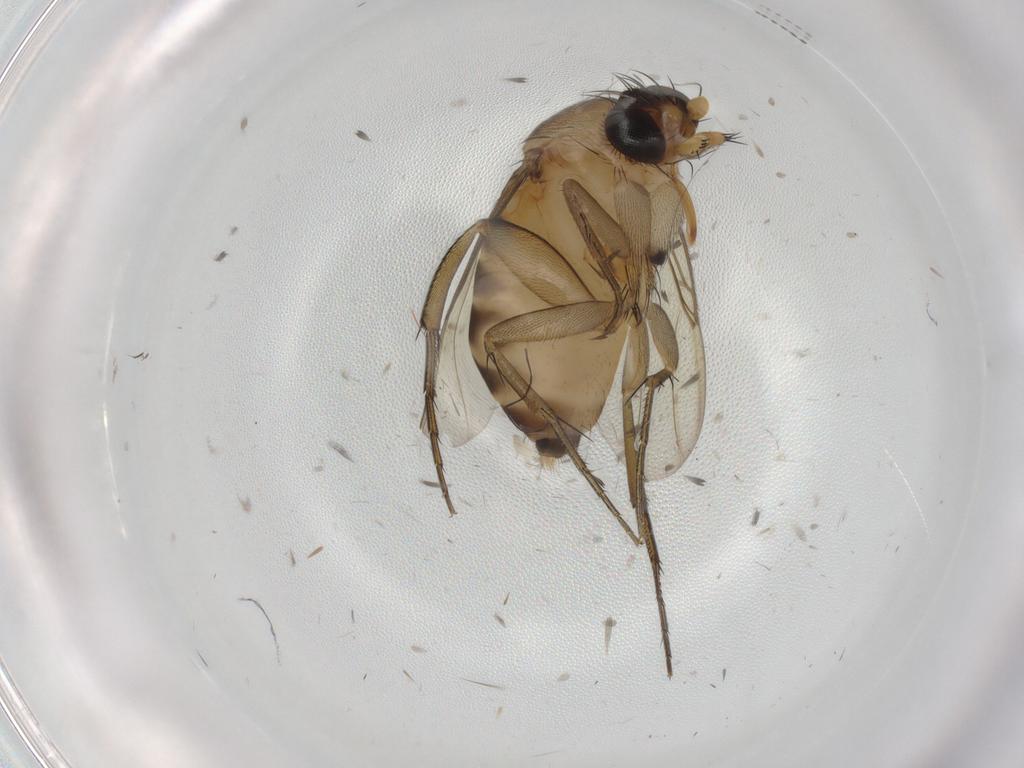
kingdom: Animalia
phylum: Arthropoda
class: Insecta
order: Diptera
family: Phoridae
